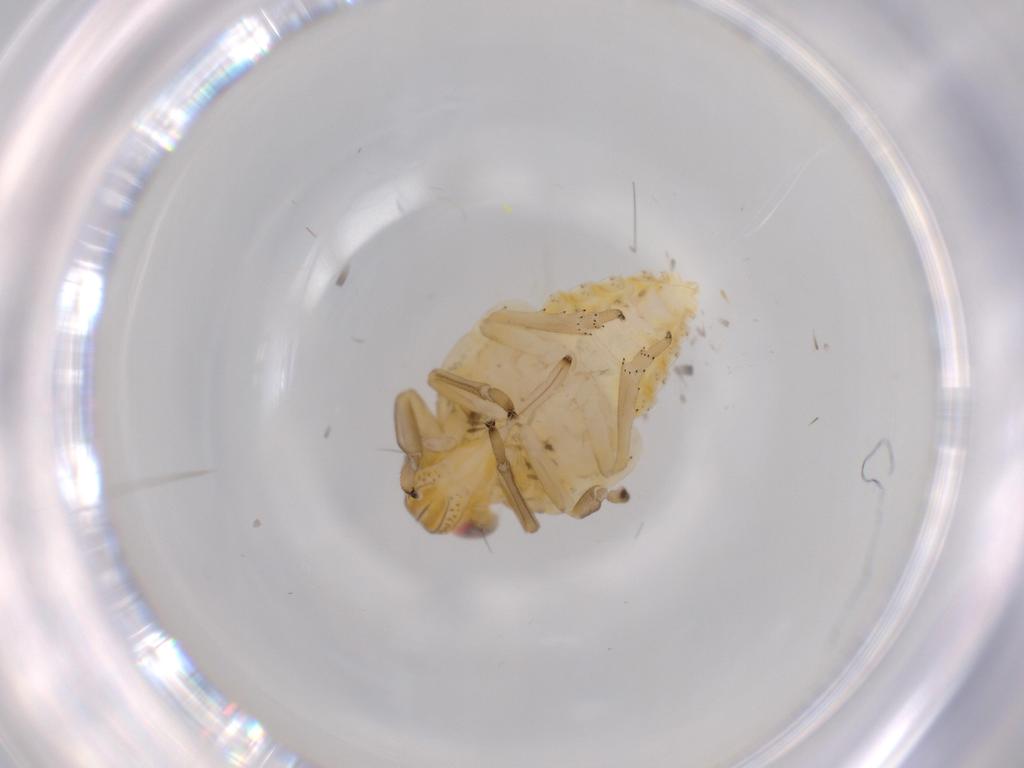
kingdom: Animalia
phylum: Arthropoda
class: Insecta
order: Hemiptera
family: Issidae
